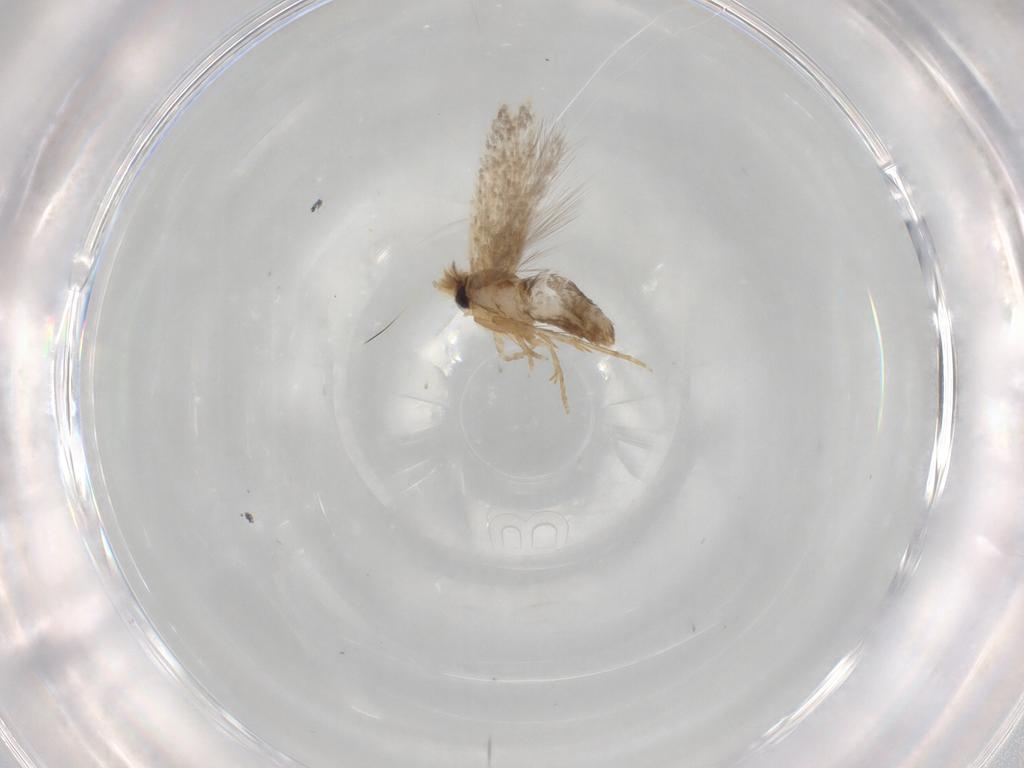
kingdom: Animalia
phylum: Arthropoda
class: Insecta
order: Lepidoptera
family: Nepticulidae
